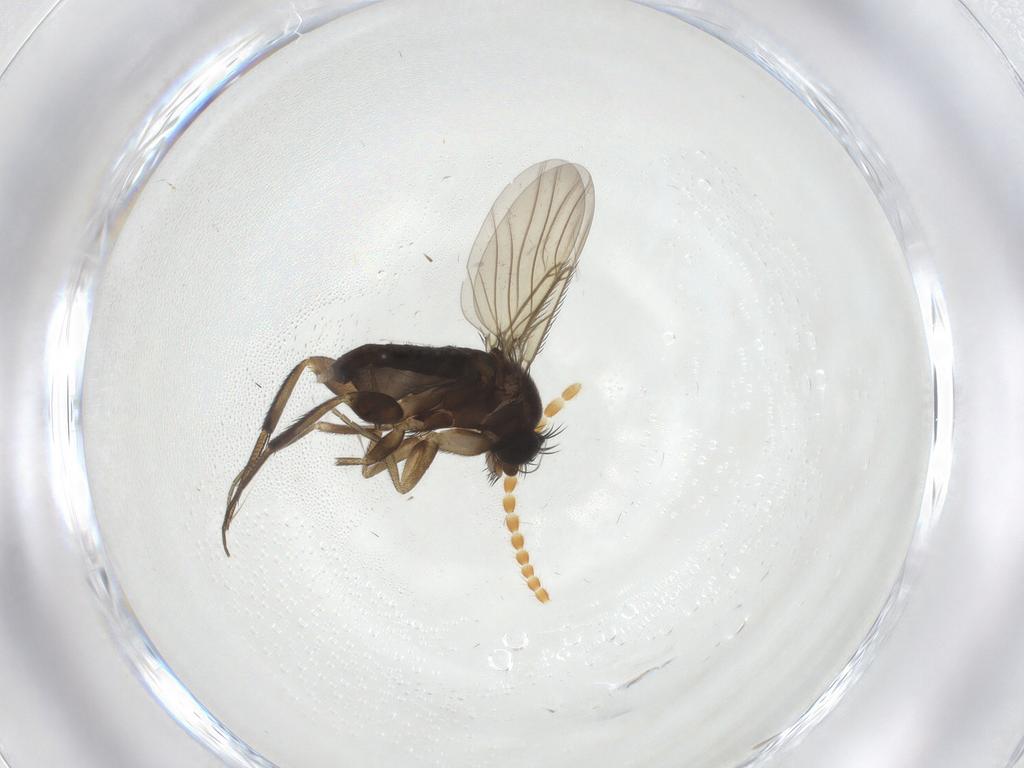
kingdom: Animalia
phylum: Arthropoda
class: Insecta
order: Diptera
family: Phoridae
